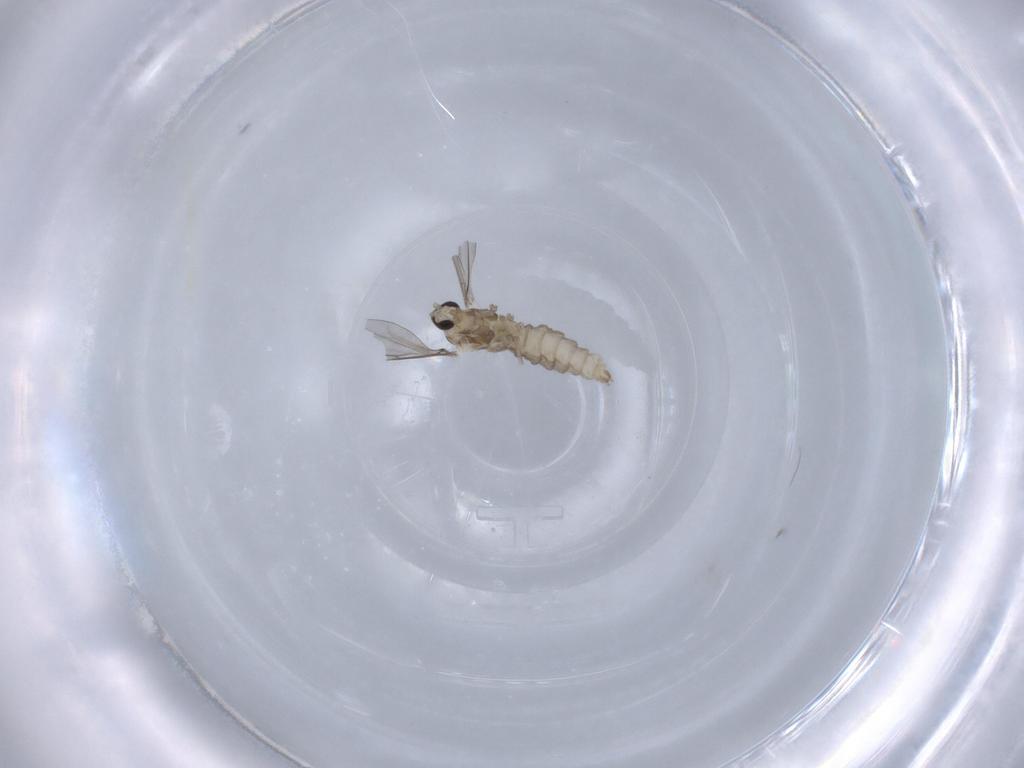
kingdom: Animalia
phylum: Arthropoda
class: Insecta
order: Diptera
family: Cecidomyiidae
